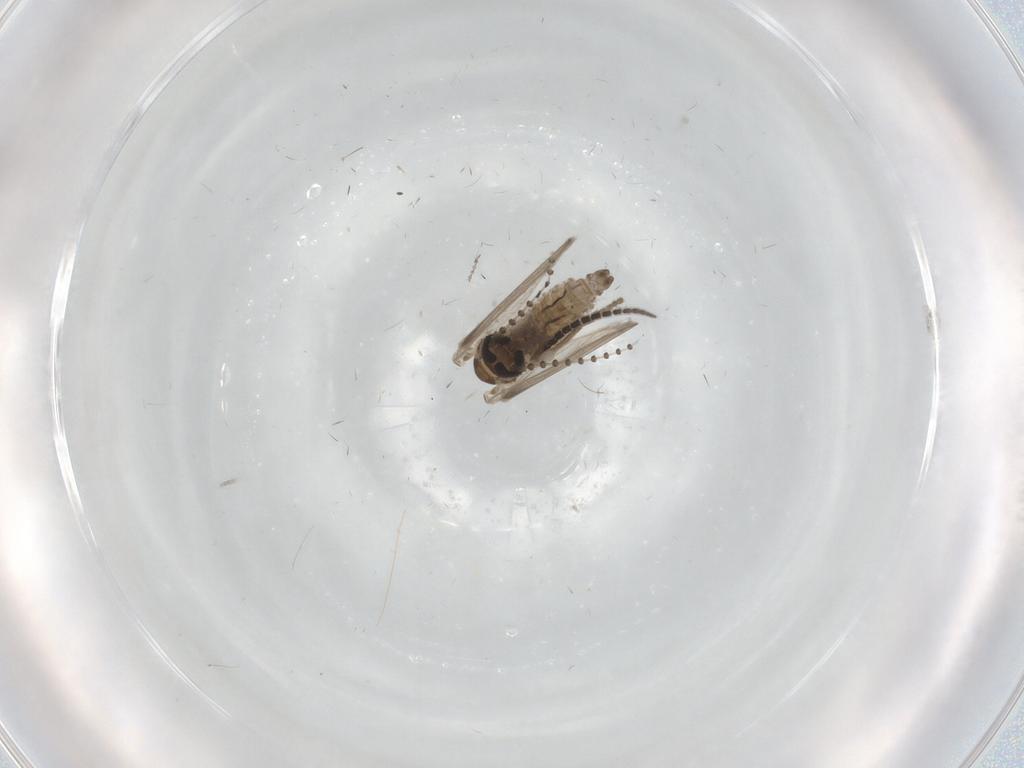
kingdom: Animalia
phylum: Arthropoda
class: Insecta
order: Diptera
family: Psychodidae
